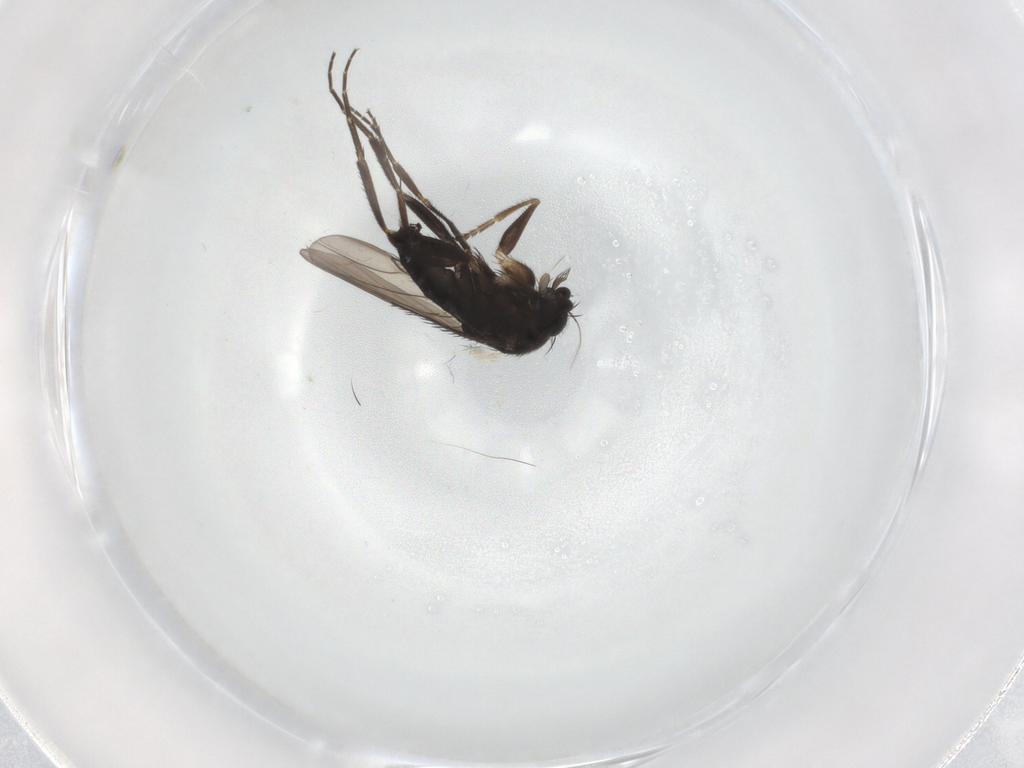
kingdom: Animalia
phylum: Arthropoda
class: Insecta
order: Diptera
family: Phoridae
